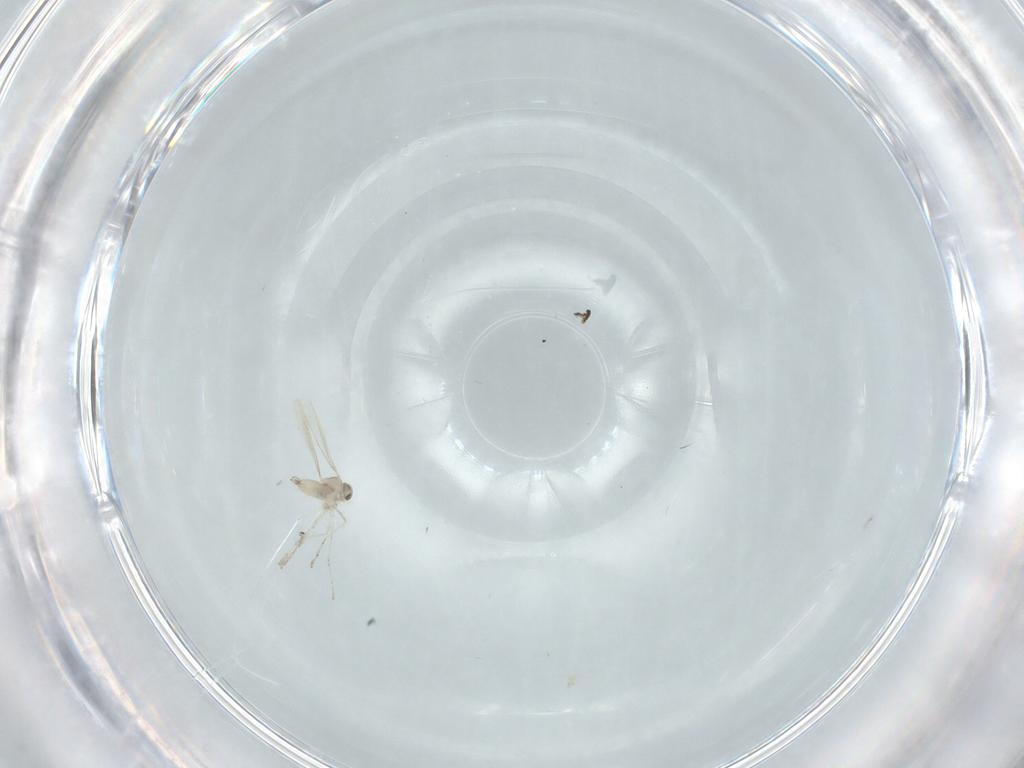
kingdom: Animalia
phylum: Arthropoda
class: Insecta
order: Diptera
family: Cecidomyiidae
